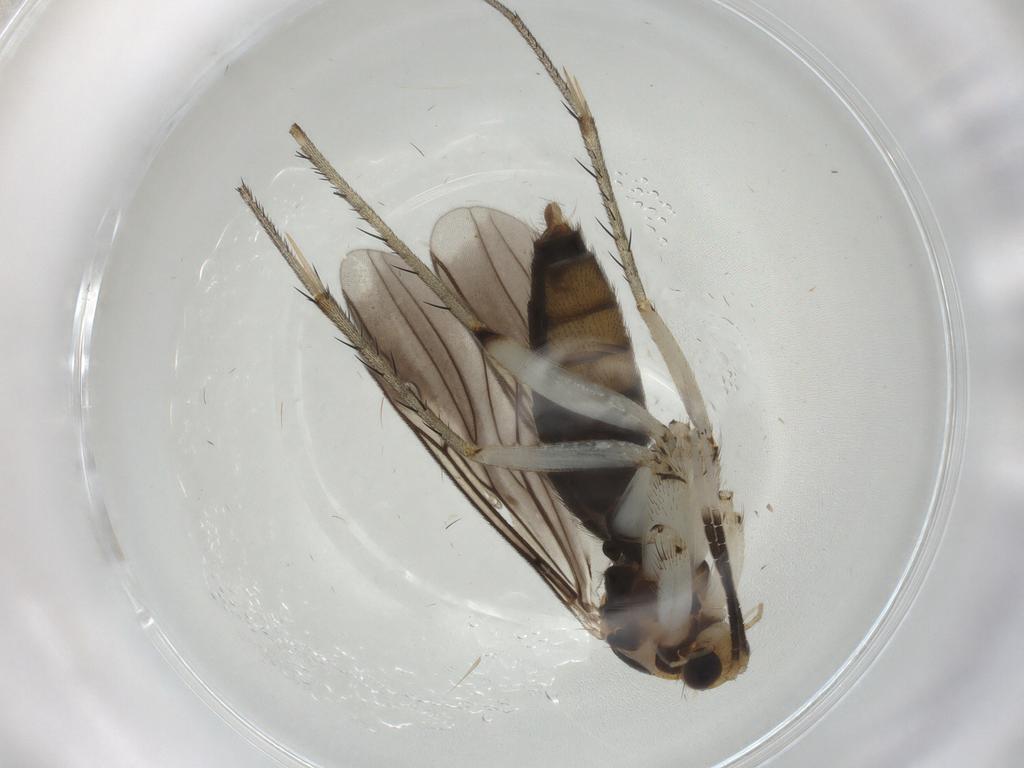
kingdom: Animalia
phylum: Arthropoda
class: Insecta
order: Diptera
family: Mycetophilidae
